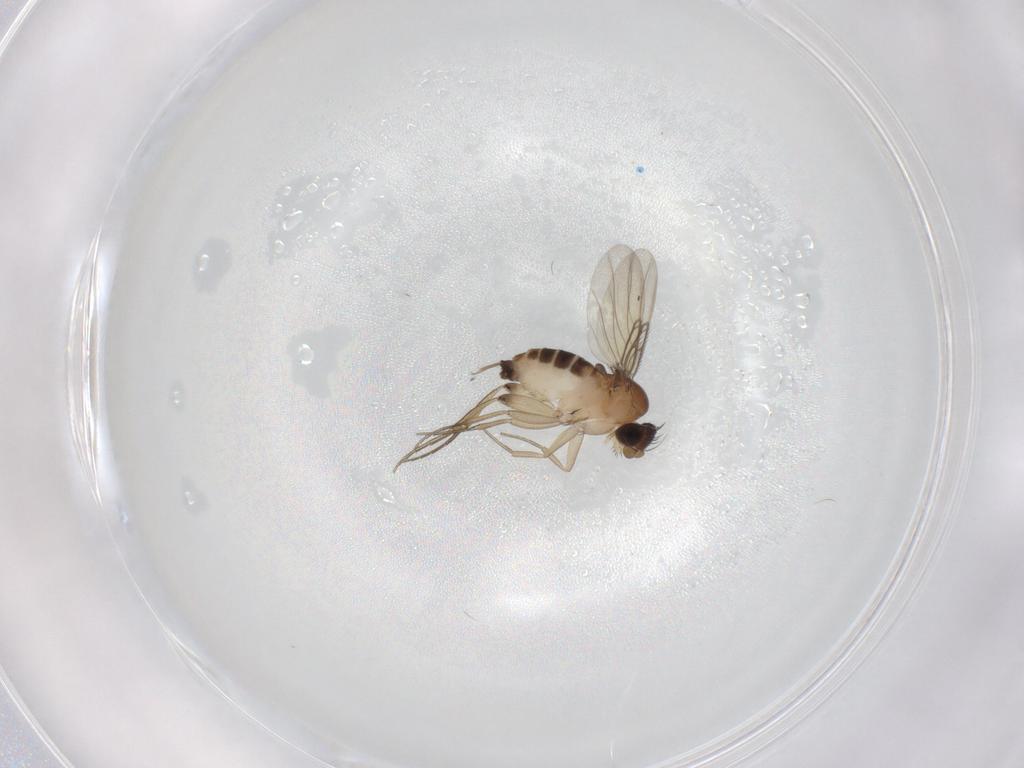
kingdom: Animalia
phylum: Arthropoda
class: Insecta
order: Diptera
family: Phoridae
